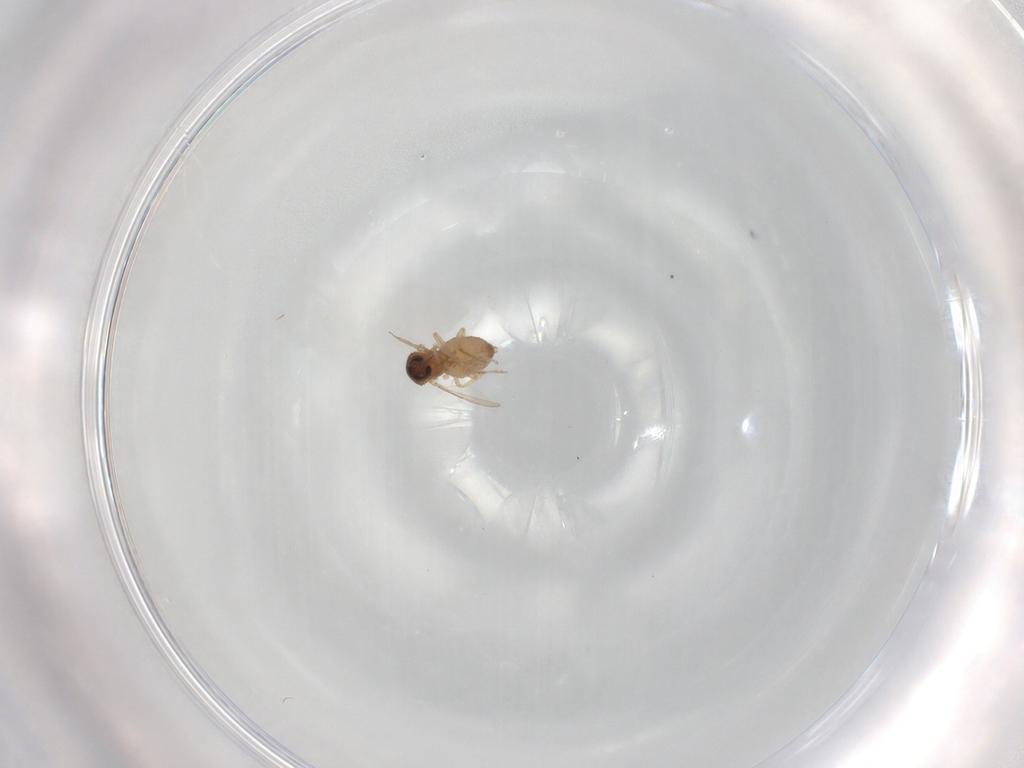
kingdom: Animalia
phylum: Arthropoda
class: Insecta
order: Diptera
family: Ceratopogonidae
